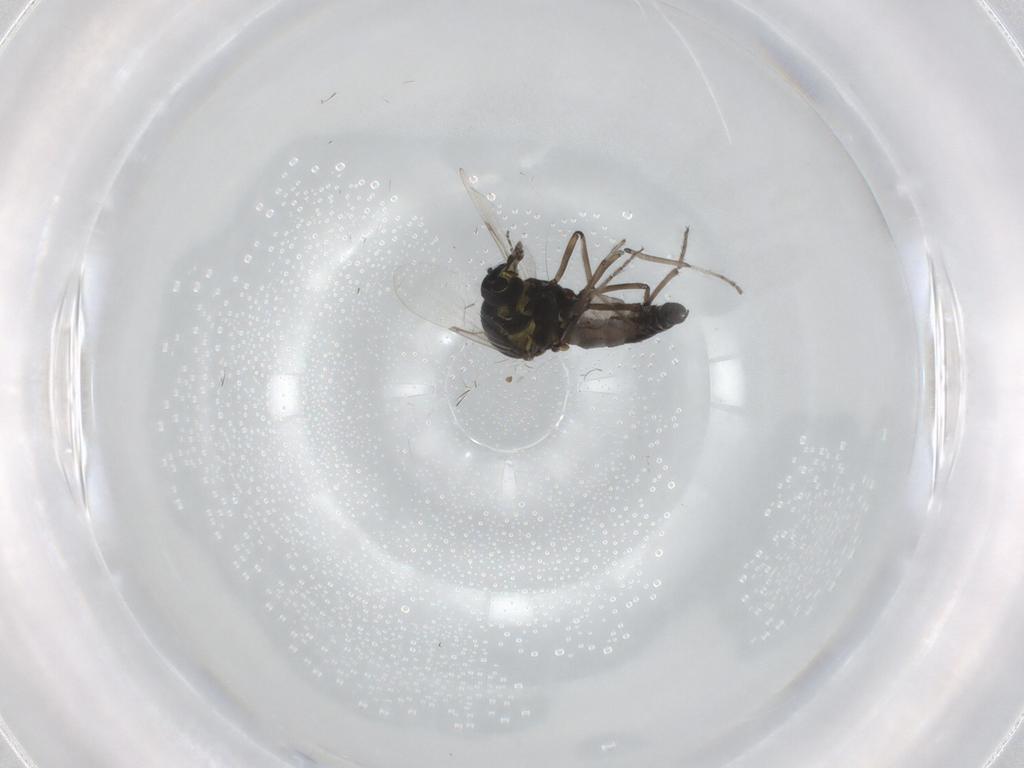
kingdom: Animalia
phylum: Arthropoda
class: Insecta
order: Diptera
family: Ceratopogonidae
